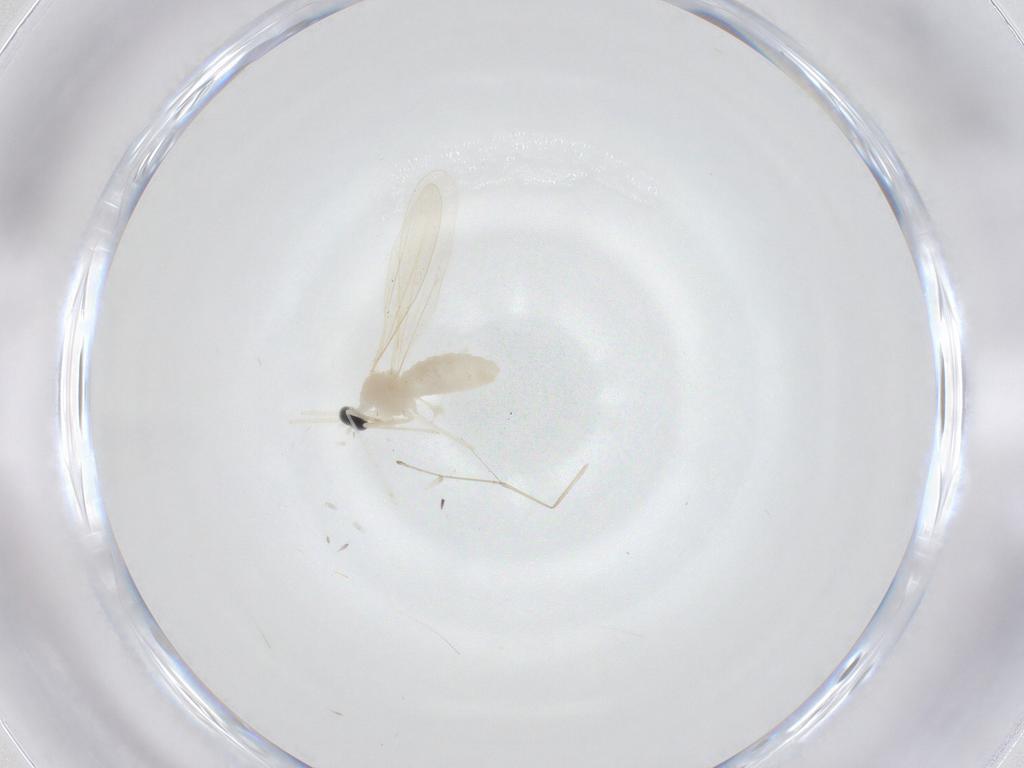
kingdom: Animalia
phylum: Arthropoda
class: Insecta
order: Diptera
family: Cecidomyiidae
